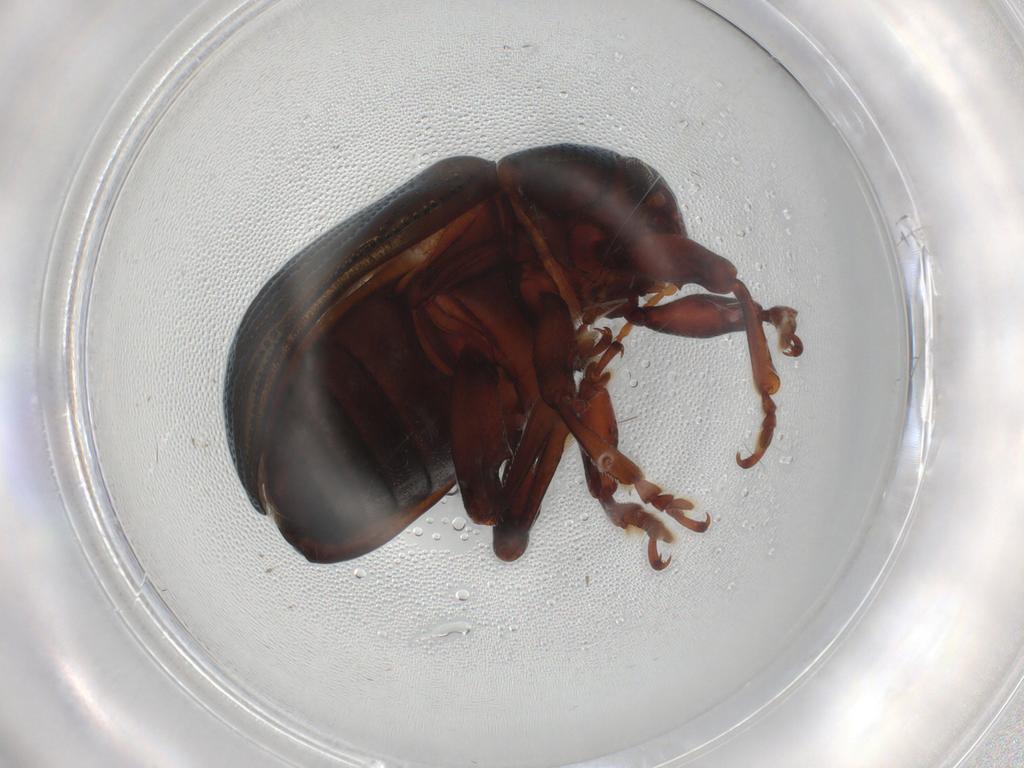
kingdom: Animalia
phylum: Arthropoda
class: Insecta
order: Coleoptera
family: Chrysomelidae
